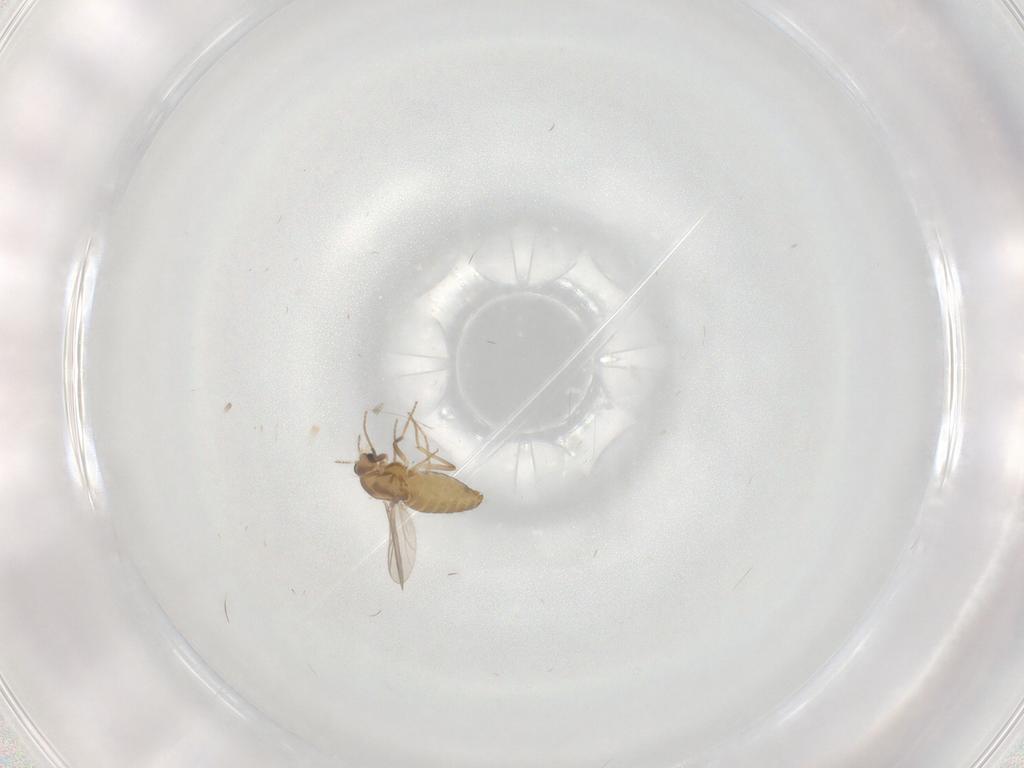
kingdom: Animalia
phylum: Arthropoda
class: Insecta
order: Diptera
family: Chironomidae
